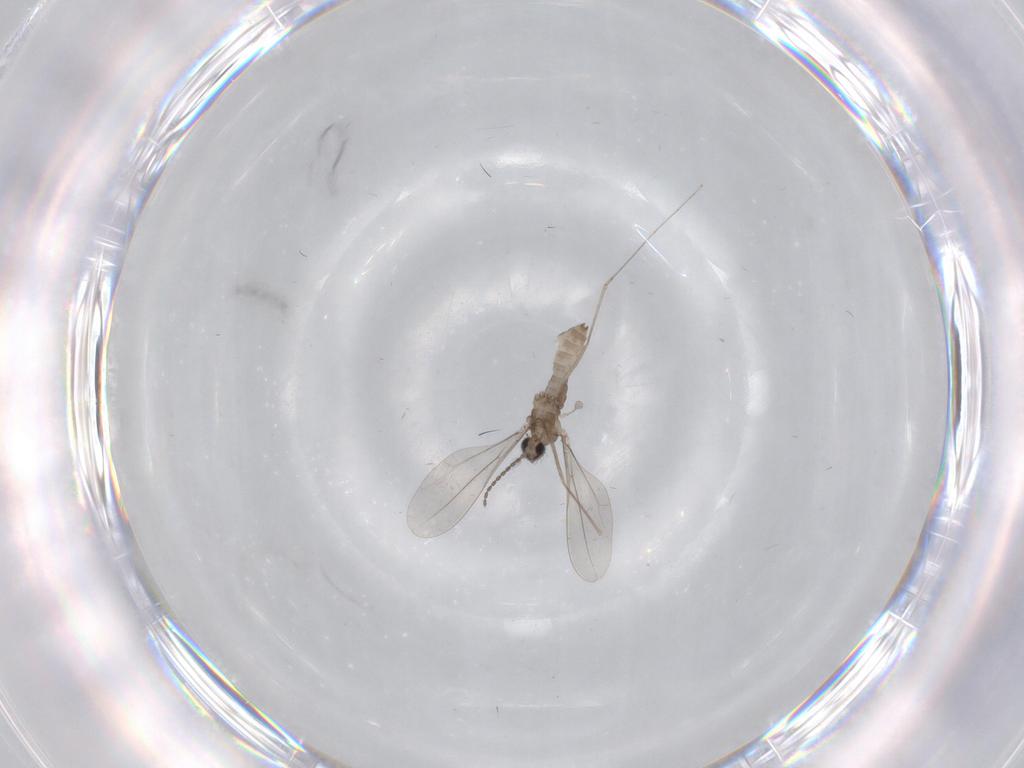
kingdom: Animalia
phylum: Arthropoda
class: Insecta
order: Diptera
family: Cecidomyiidae
